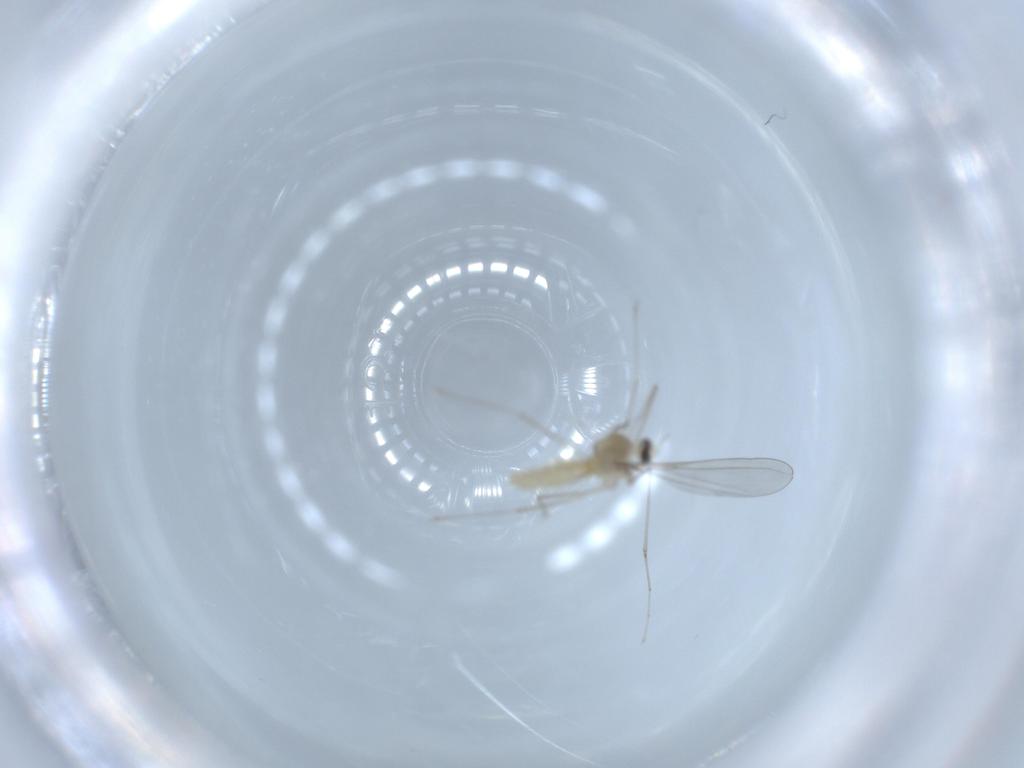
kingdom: Animalia
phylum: Arthropoda
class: Insecta
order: Diptera
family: Cecidomyiidae
